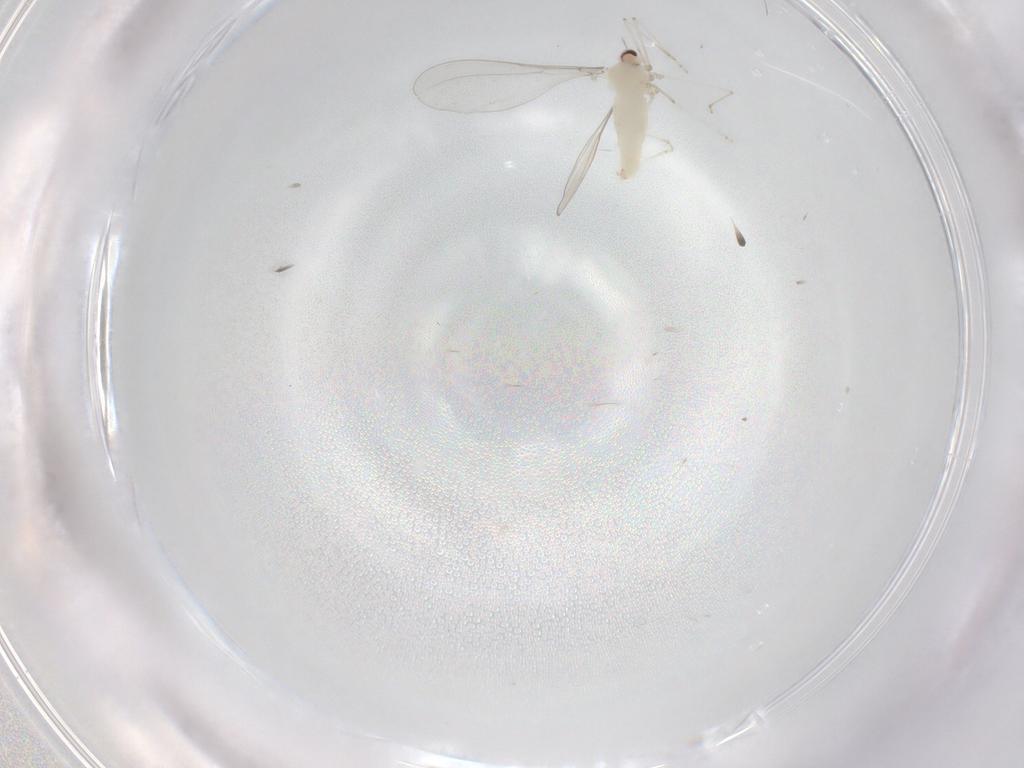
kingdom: Animalia
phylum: Arthropoda
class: Insecta
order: Diptera
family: Cecidomyiidae
